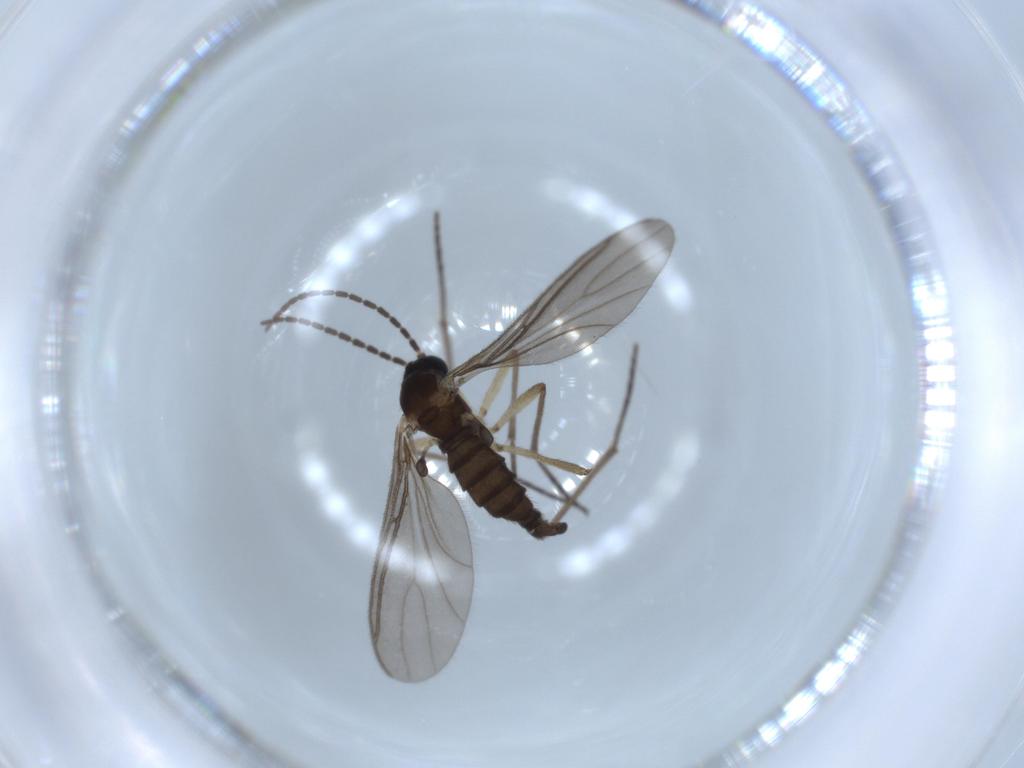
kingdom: Animalia
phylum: Arthropoda
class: Insecta
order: Diptera
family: Sciaridae
